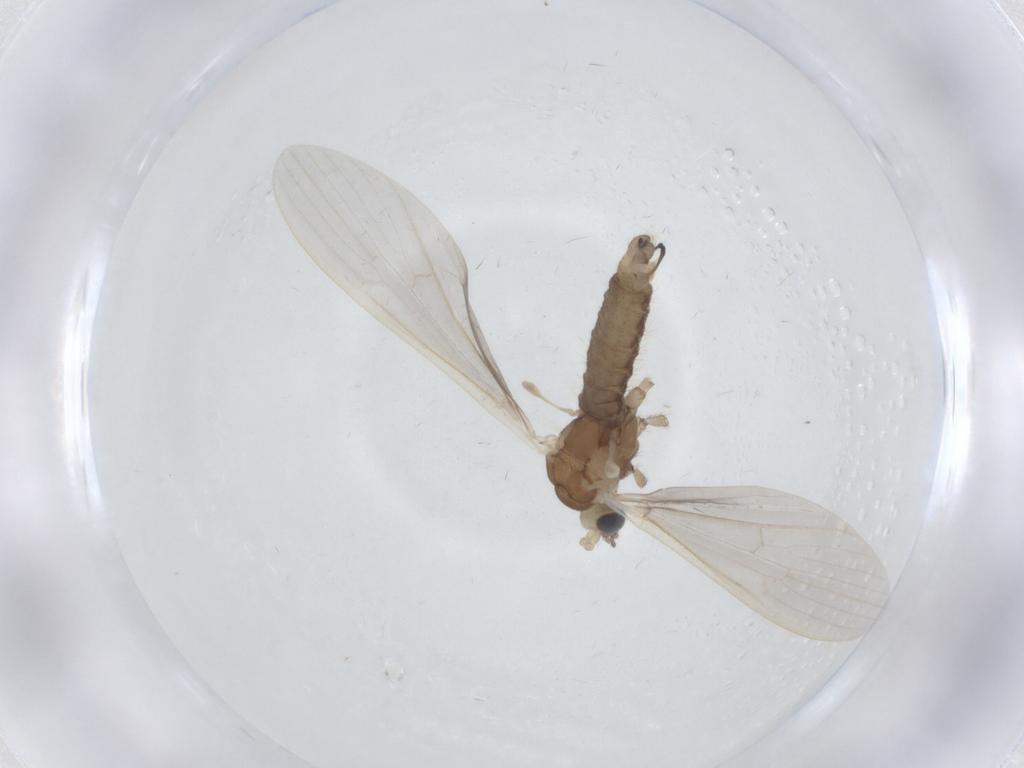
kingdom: Animalia
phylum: Arthropoda
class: Insecta
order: Diptera
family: Limoniidae
